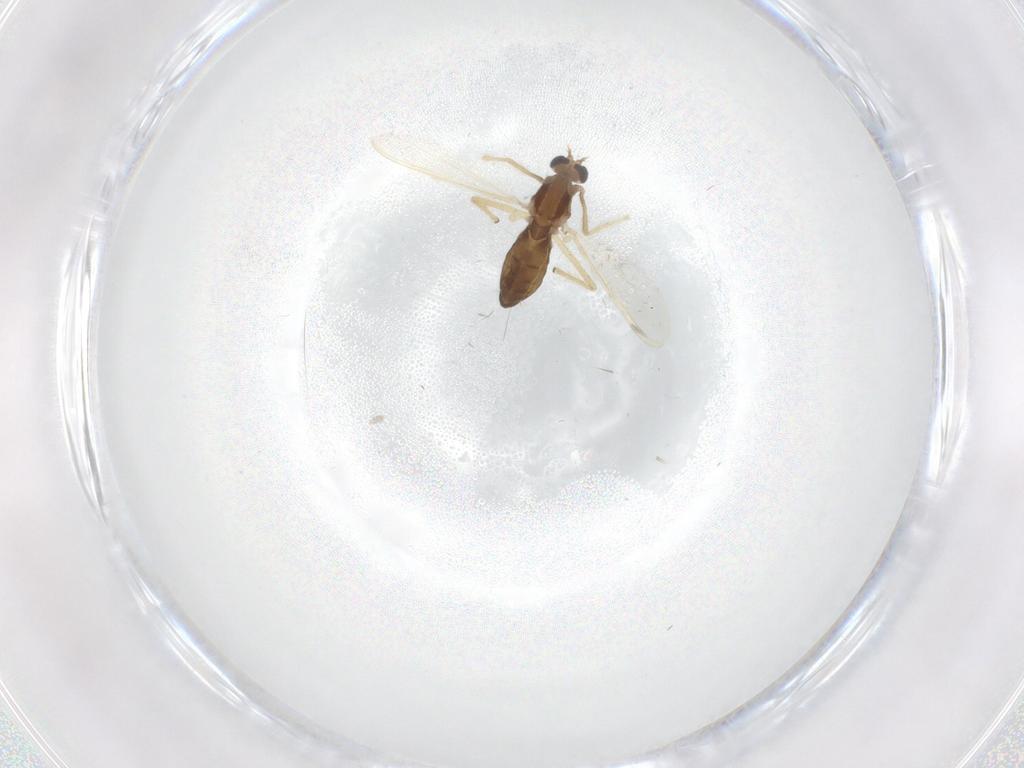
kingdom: Animalia
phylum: Arthropoda
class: Insecta
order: Diptera
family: Chironomidae
